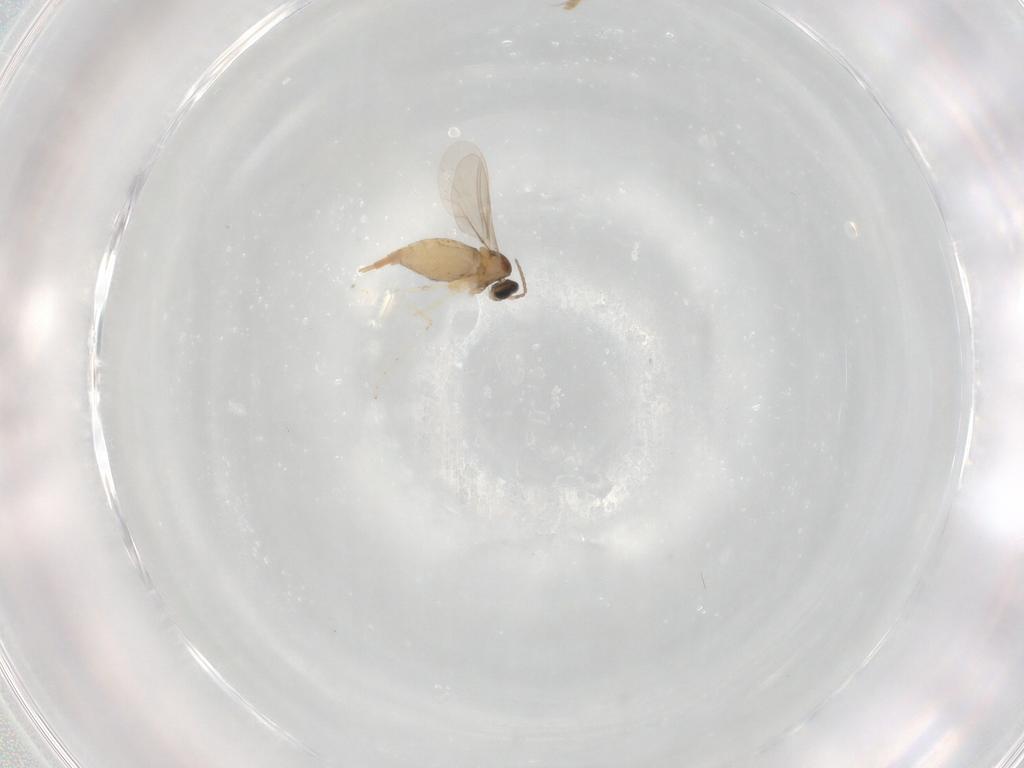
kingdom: Animalia
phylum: Arthropoda
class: Insecta
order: Diptera
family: Cecidomyiidae
